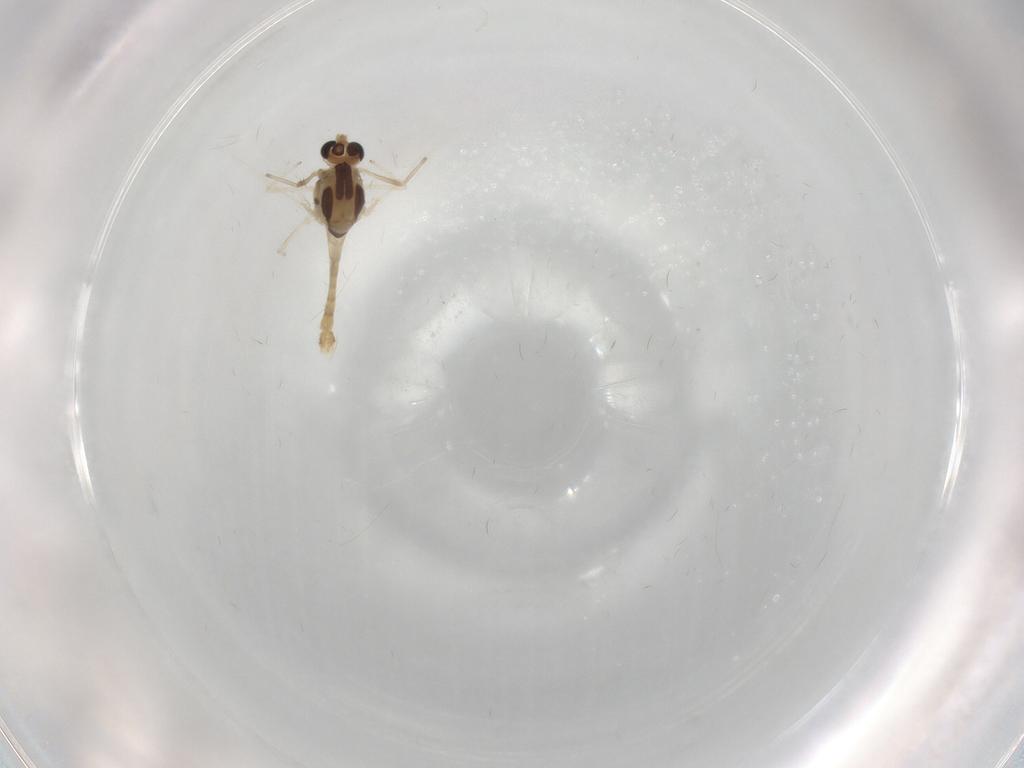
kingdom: Animalia
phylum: Arthropoda
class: Insecta
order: Diptera
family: Chironomidae
